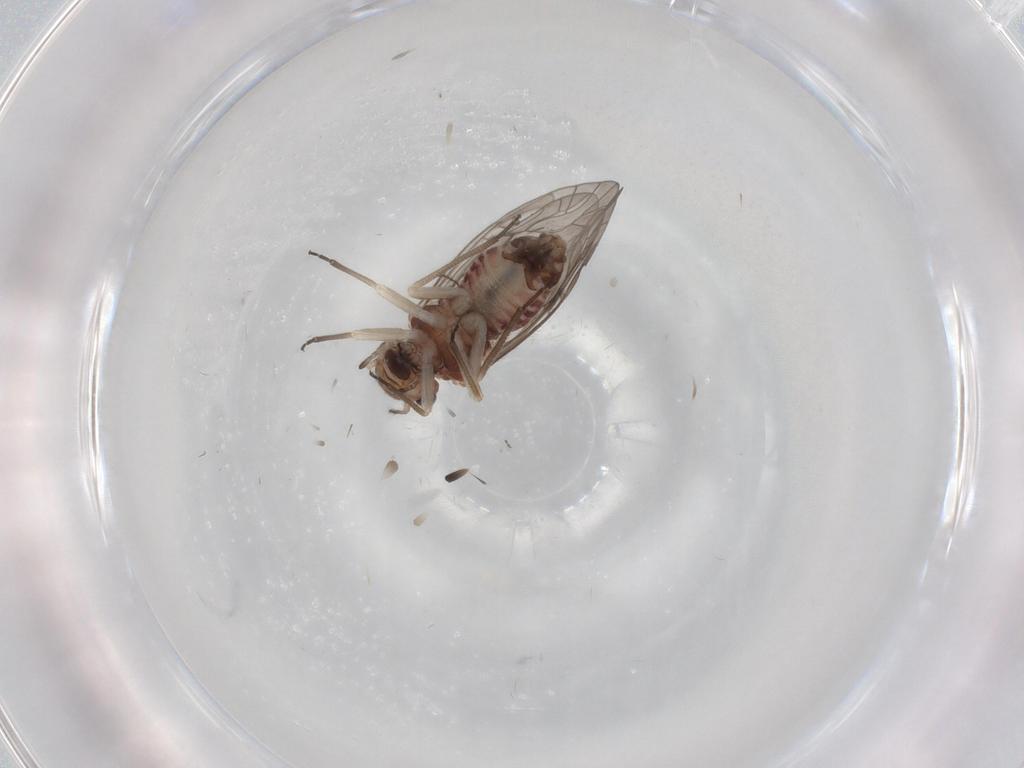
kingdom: Animalia
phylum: Arthropoda
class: Insecta
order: Psocodea
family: Ectopsocidae
